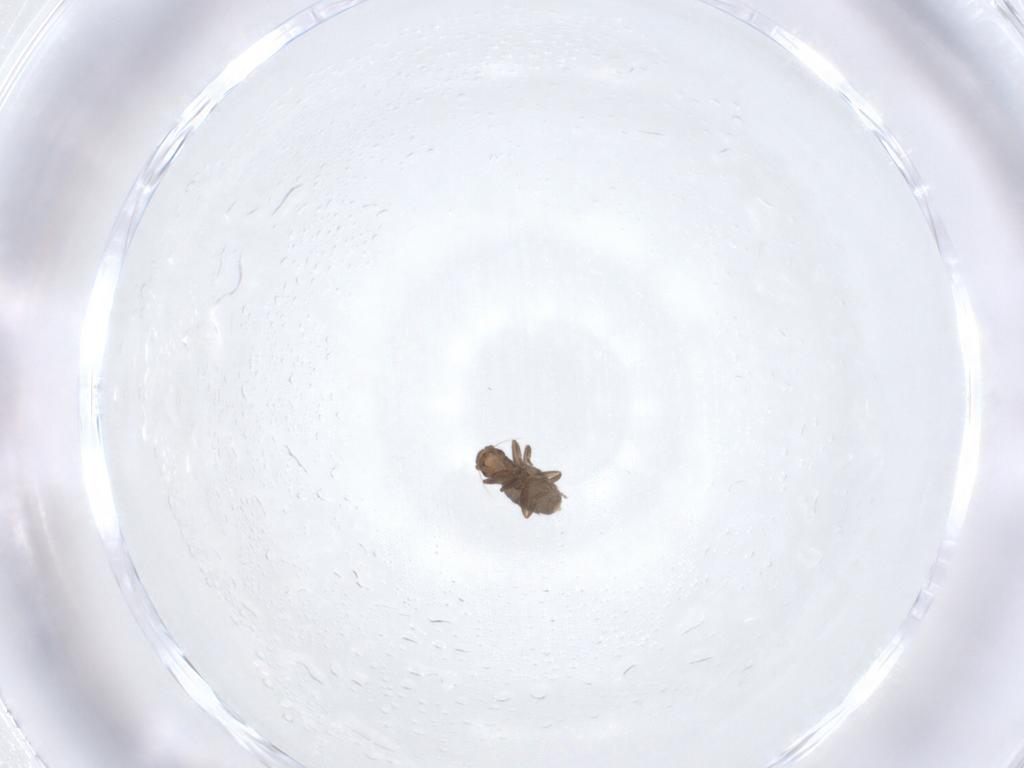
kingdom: Animalia
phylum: Arthropoda
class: Insecta
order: Diptera
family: Phoridae
